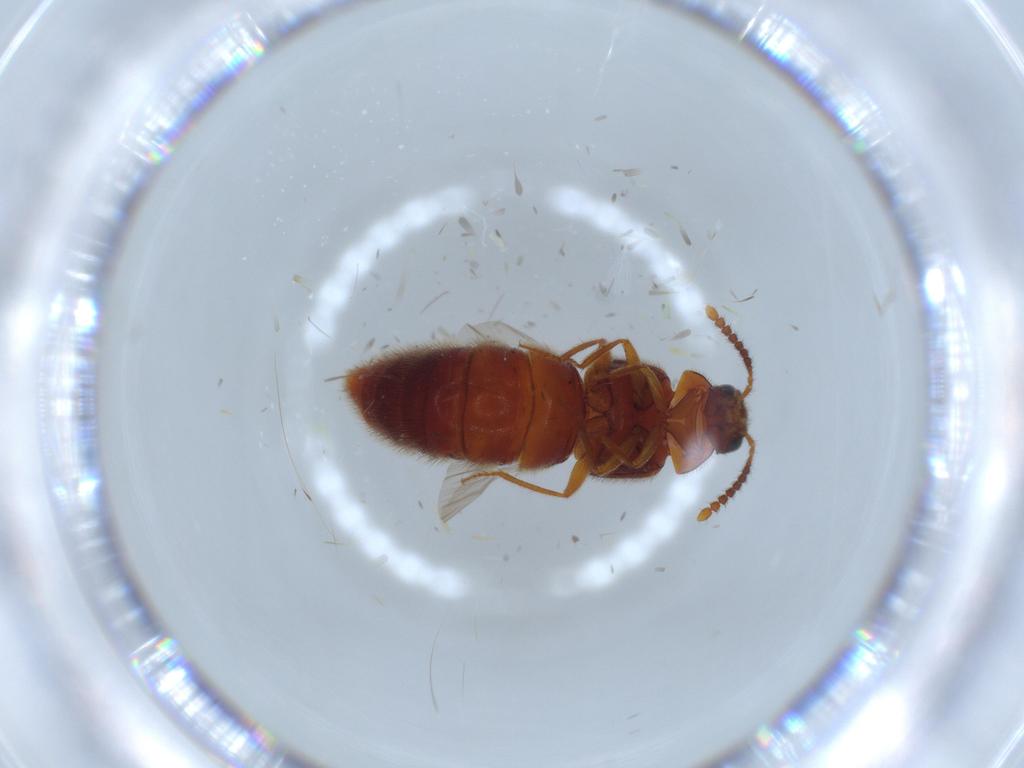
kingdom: Animalia
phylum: Arthropoda
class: Insecta
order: Coleoptera
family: Staphylinidae
